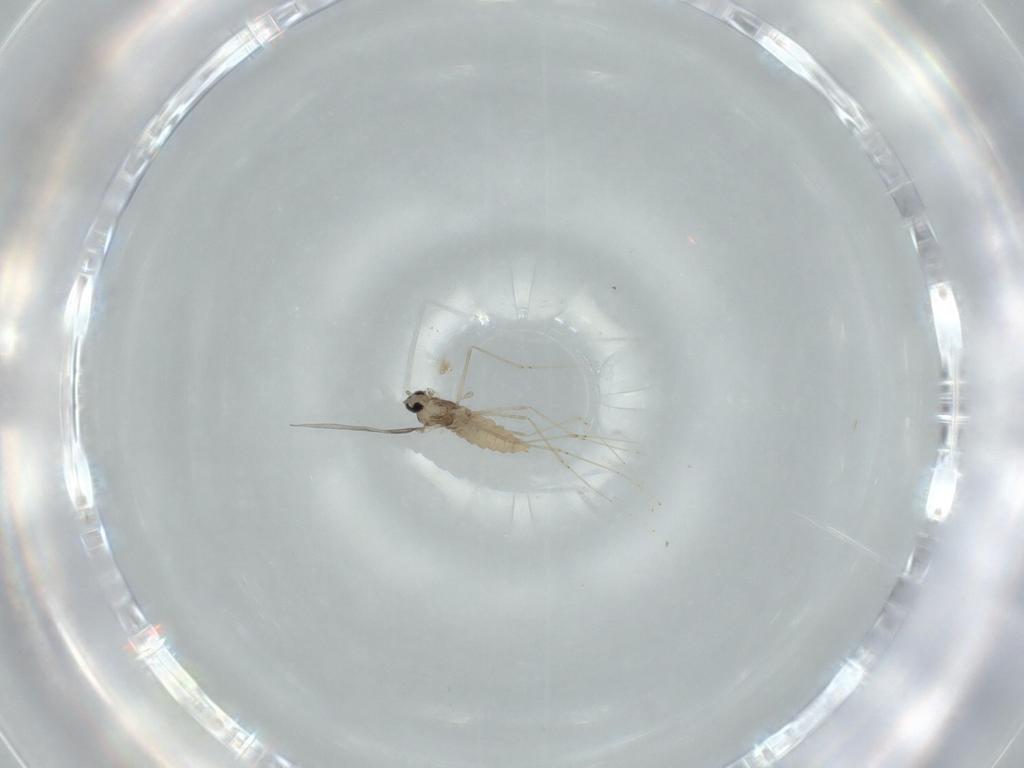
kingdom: Animalia
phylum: Arthropoda
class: Insecta
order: Diptera
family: Cecidomyiidae
